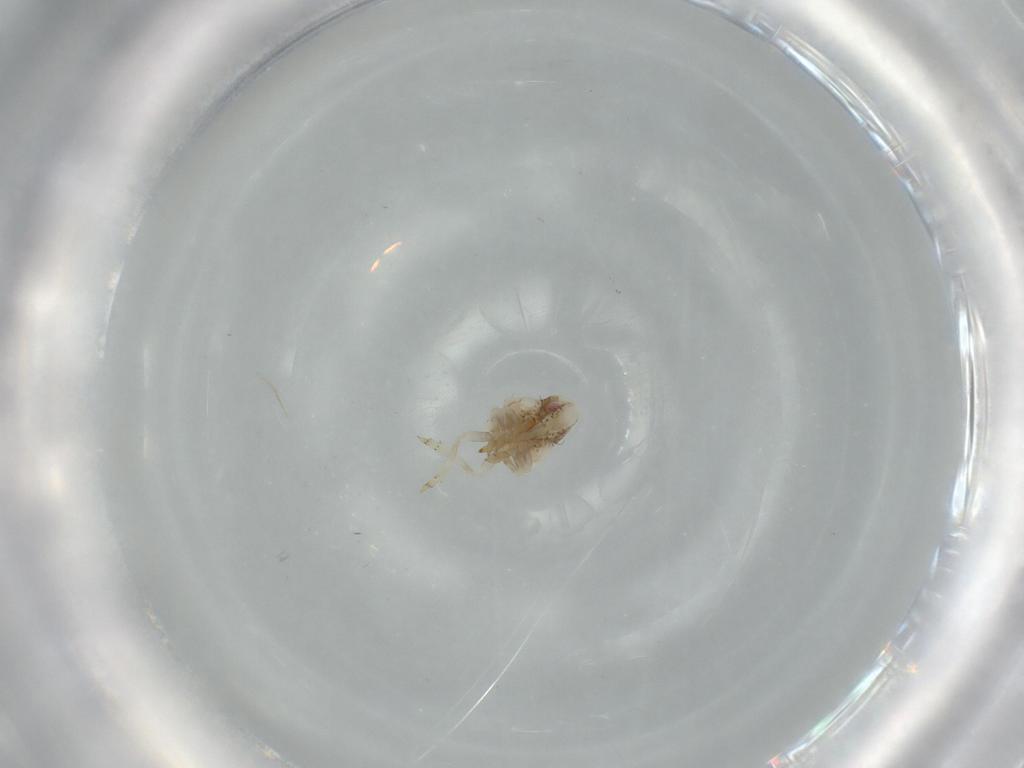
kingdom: Animalia
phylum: Arthropoda
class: Insecta
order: Hemiptera
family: Acanaloniidae
